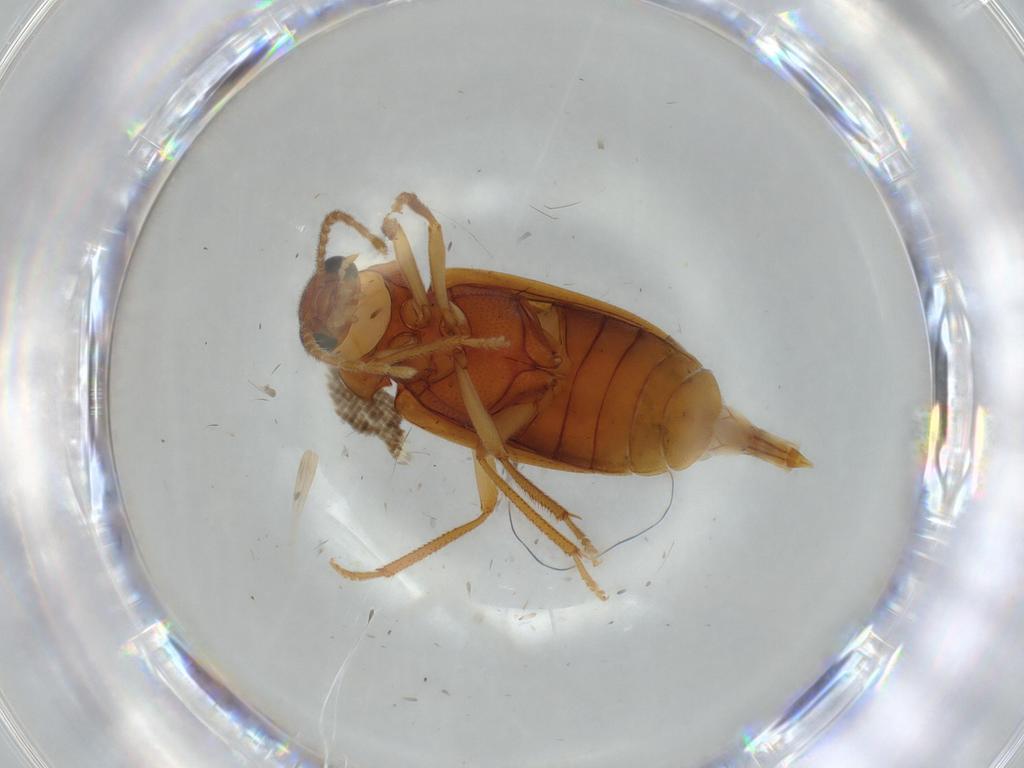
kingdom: Animalia
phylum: Arthropoda
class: Insecta
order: Coleoptera
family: Ptilodactylidae
